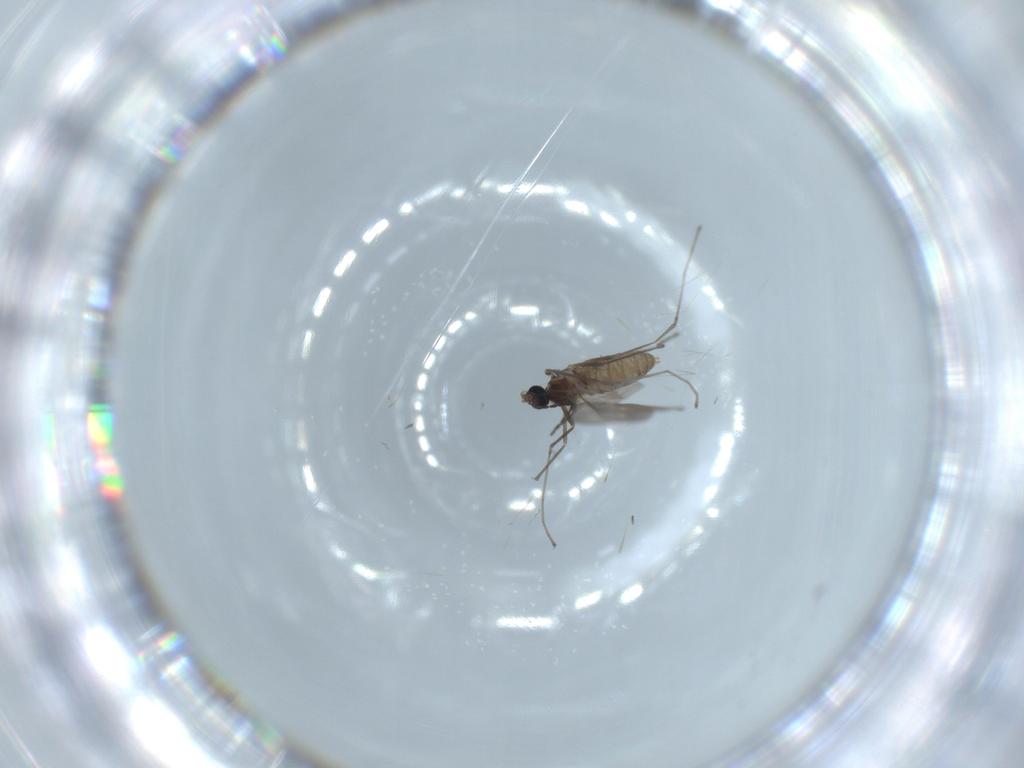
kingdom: Animalia
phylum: Arthropoda
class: Insecta
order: Diptera
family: Cecidomyiidae
